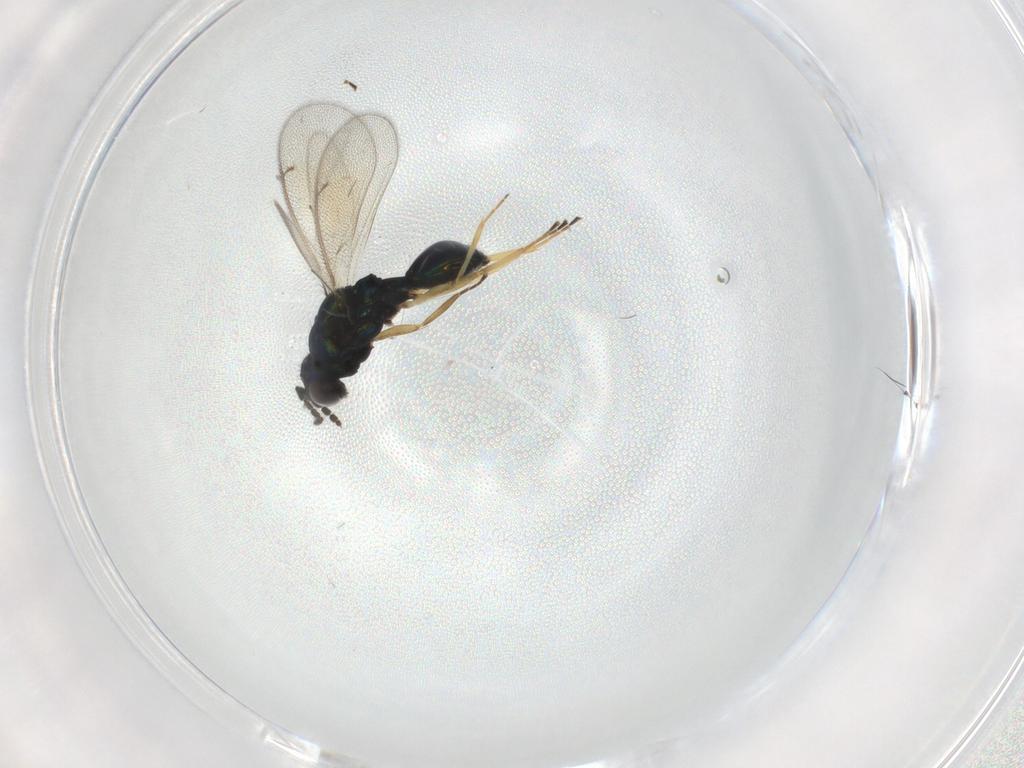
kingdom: Animalia
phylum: Arthropoda
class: Insecta
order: Hymenoptera
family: Eulophidae
